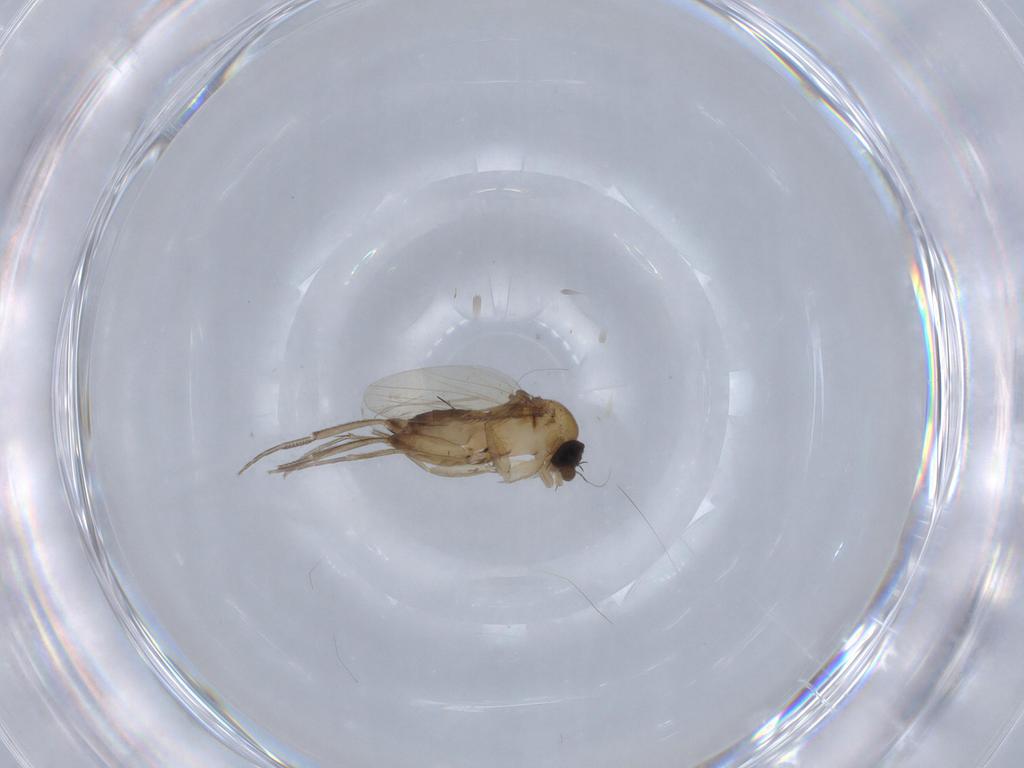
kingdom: Animalia
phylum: Arthropoda
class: Insecta
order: Diptera
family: Phoridae
